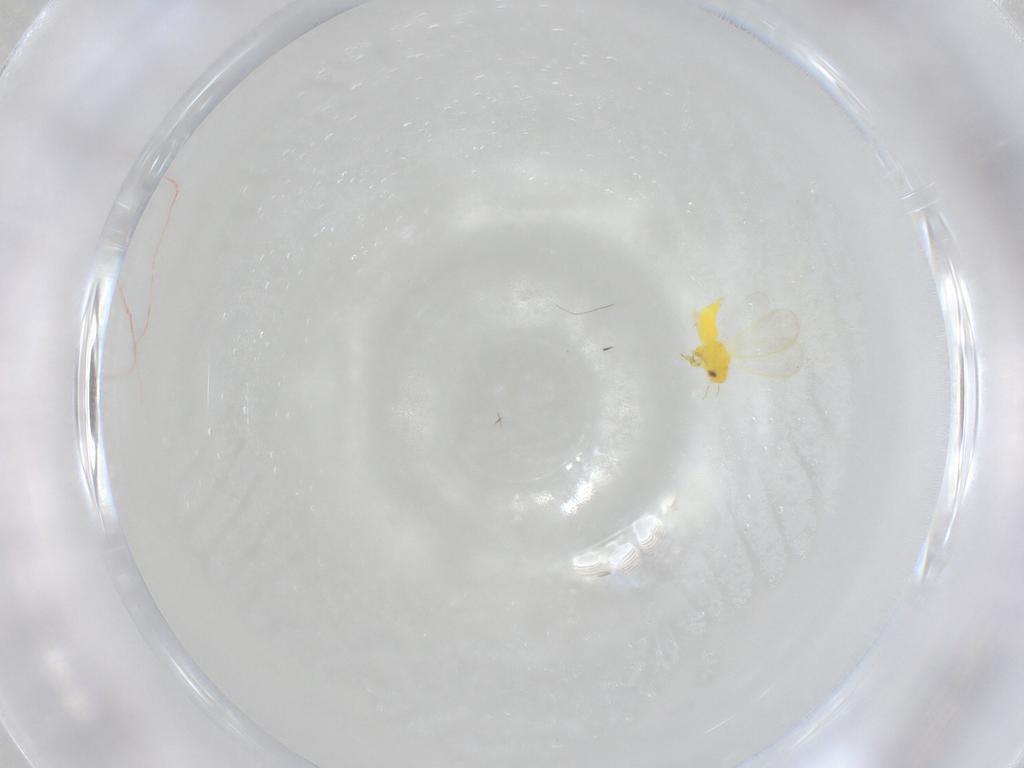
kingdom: Animalia
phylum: Arthropoda
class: Insecta
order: Hemiptera
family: Aleyrodidae
